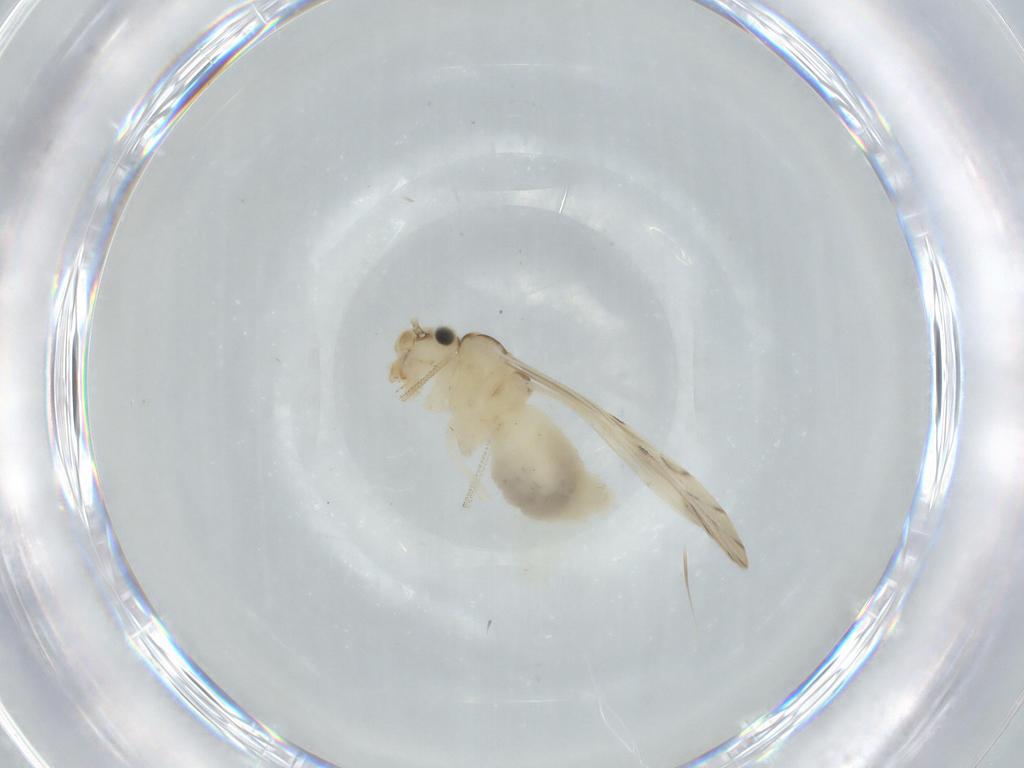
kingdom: Animalia
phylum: Arthropoda
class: Insecta
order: Psocodea
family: Caeciliusidae
